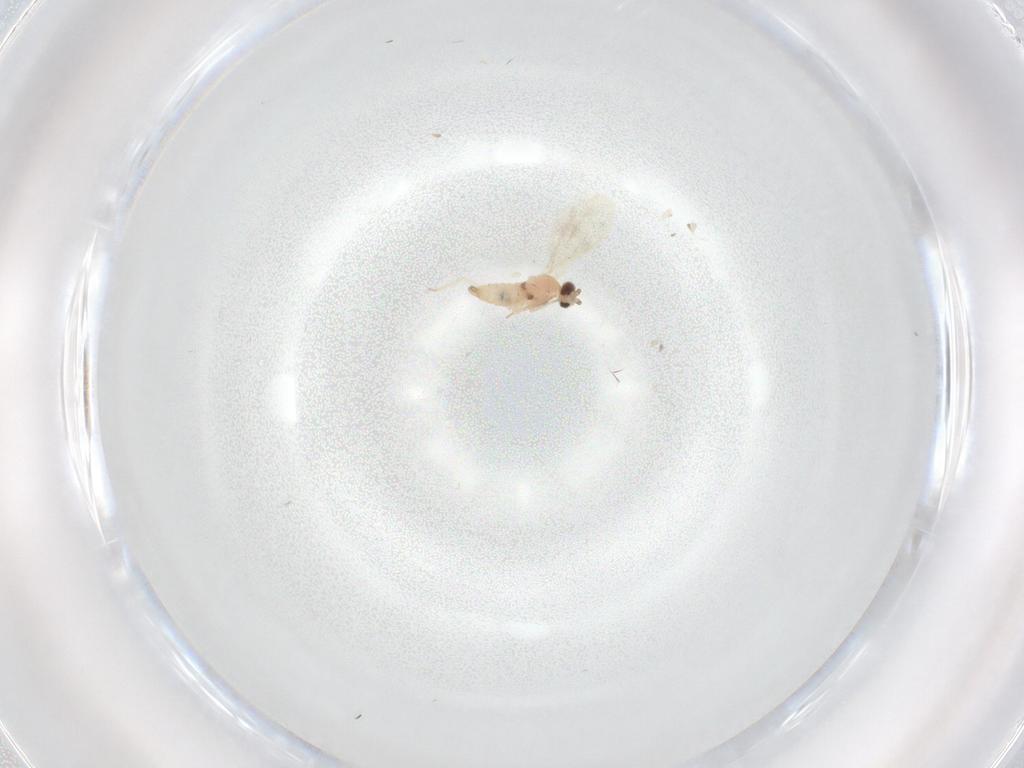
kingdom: Animalia
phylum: Arthropoda
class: Insecta
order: Diptera
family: Cecidomyiidae
